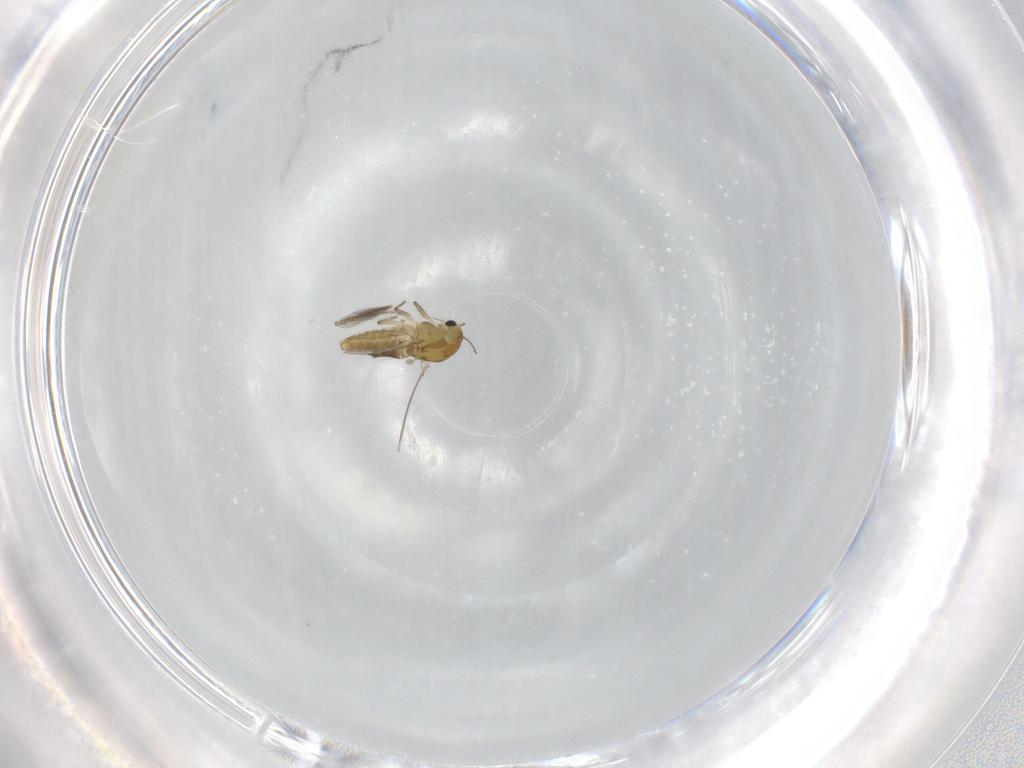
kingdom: Animalia
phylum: Arthropoda
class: Insecta
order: Diptera
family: Chironomidae
